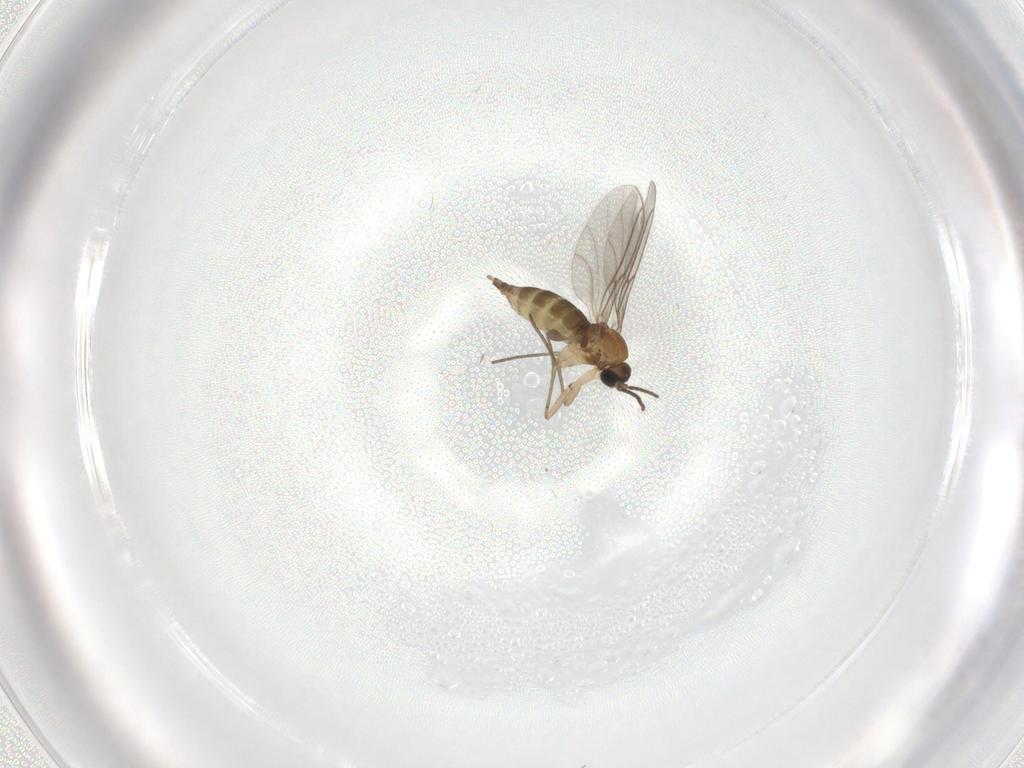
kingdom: Animalia
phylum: Arthropoda
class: Insecta
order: Diptera
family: Sciaridae
